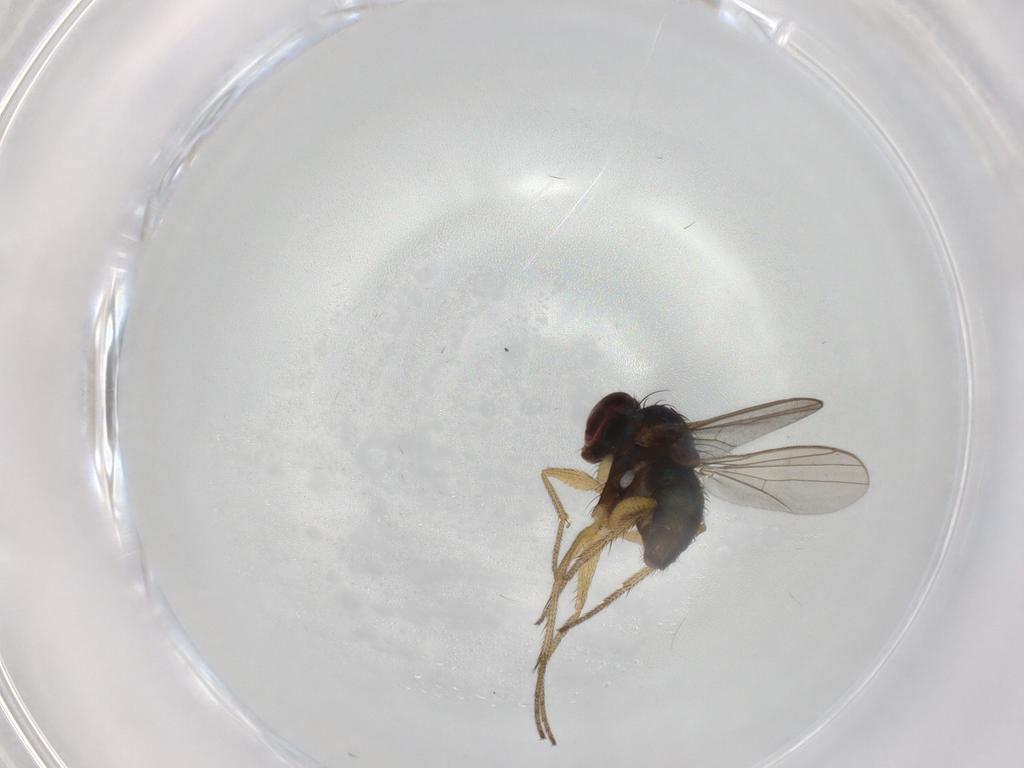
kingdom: Animalia
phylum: Arthropoda
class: Insecta
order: Diptera
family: Dolichopodidae
